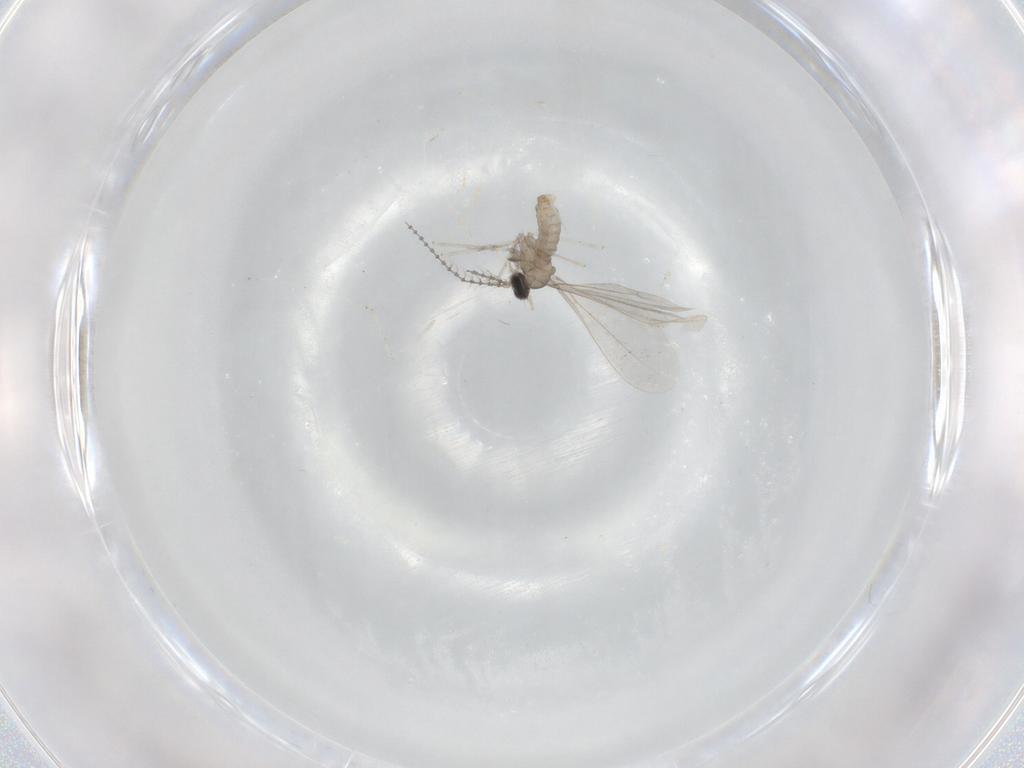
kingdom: Animalia
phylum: Arthropoda
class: Insecta
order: Diptera
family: Cecidomyiidae
